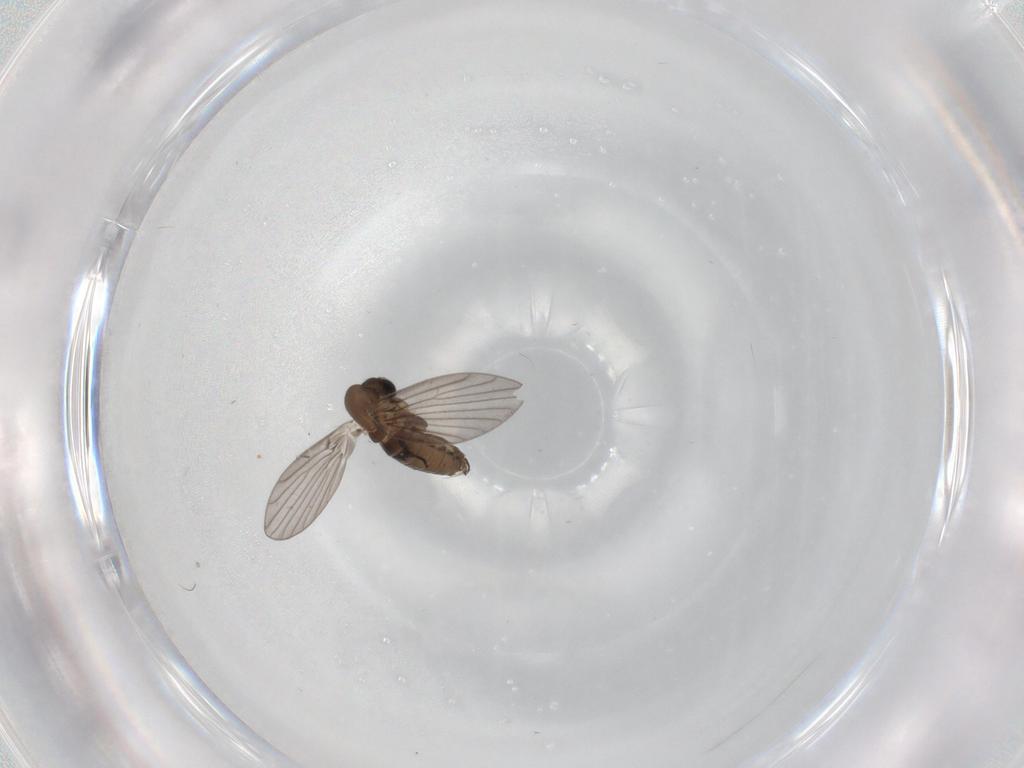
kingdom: Animalia
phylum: Arthropoda
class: Insecta
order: Diptera
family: Psychodidae
